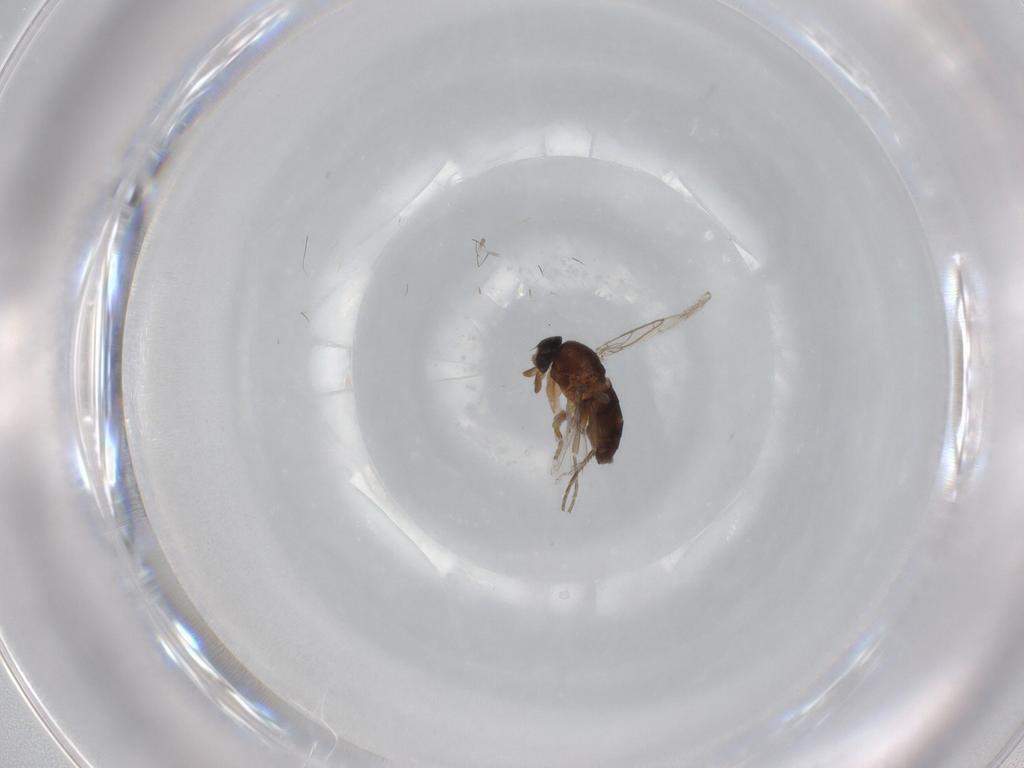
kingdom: Animalia
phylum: Arthropoda
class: Insecta
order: Diptera
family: Phoridae
